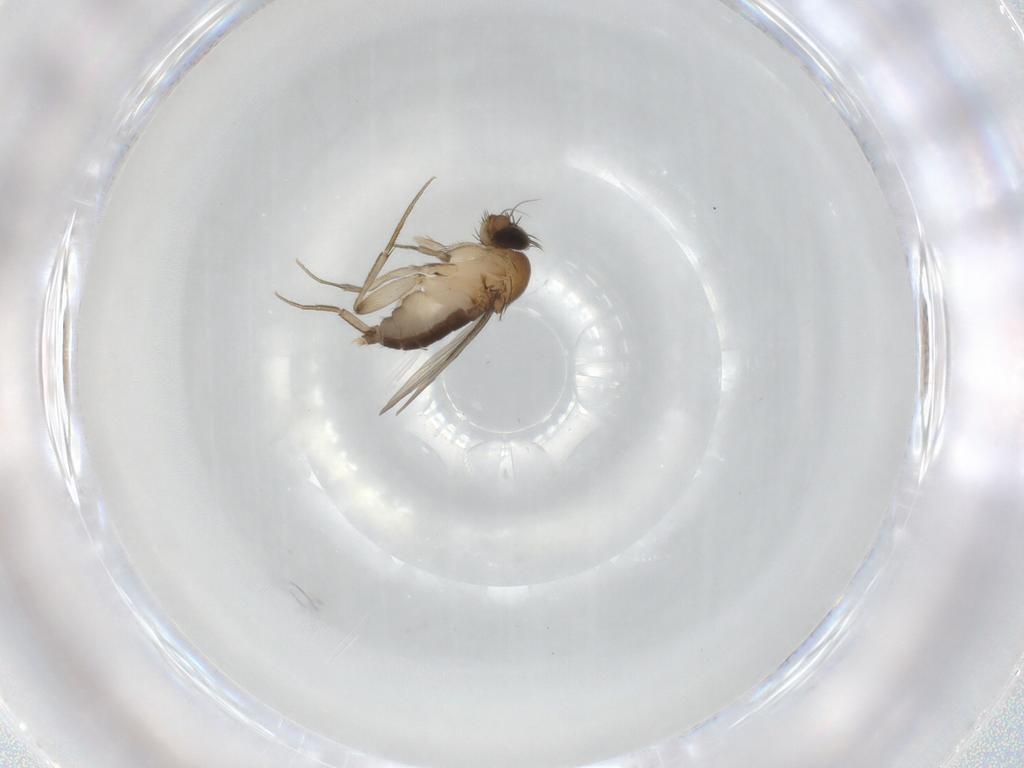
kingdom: Animalia
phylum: Arthropoda
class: Insecta
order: Diptera
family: Phoridae
